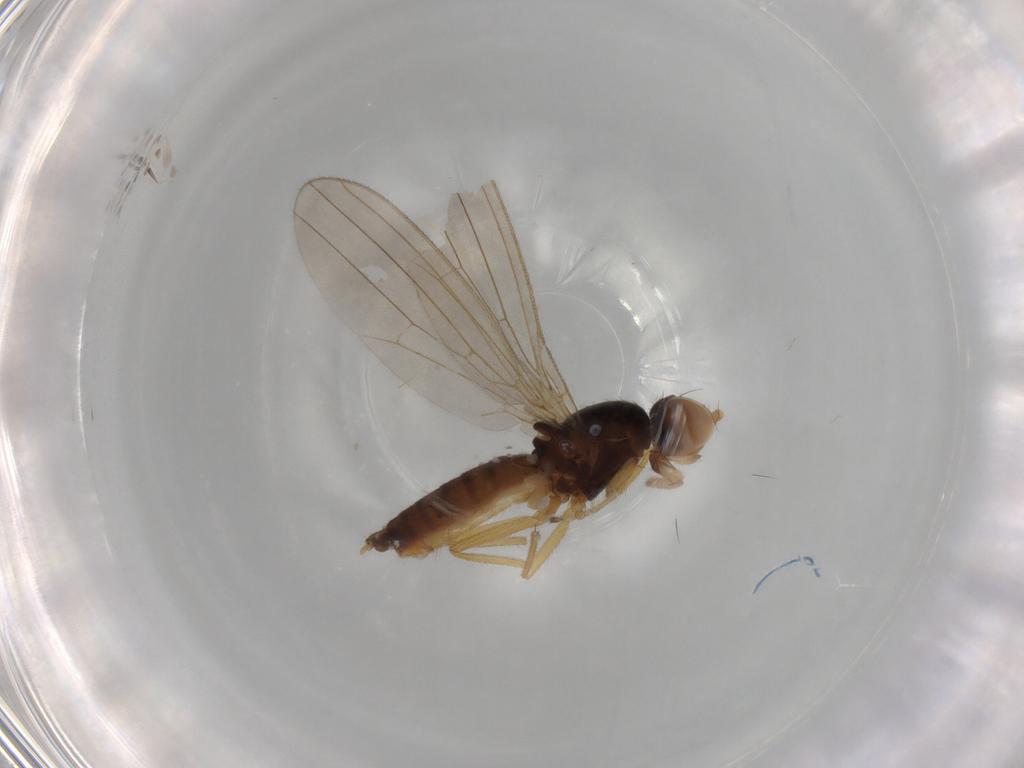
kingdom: Animalia
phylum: Arthropoda
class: Insecta
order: Diptera
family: Anthomyzidae
